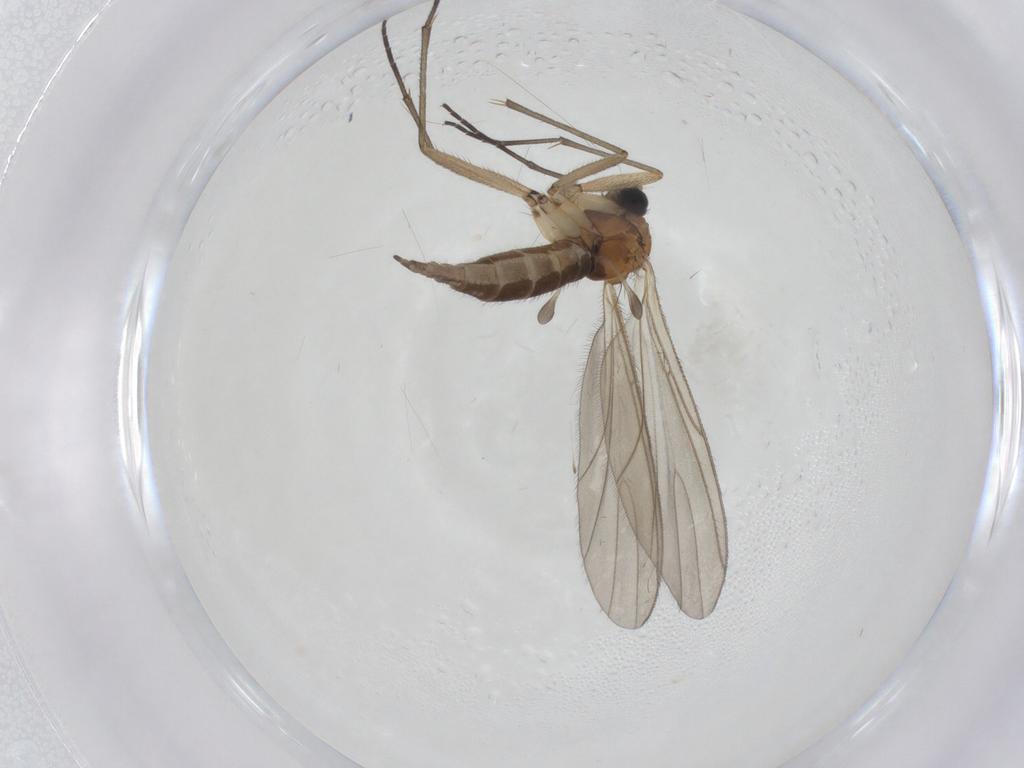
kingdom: Animalia
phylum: Arthropoda
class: Insecta
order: Diptera
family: Sciaridae
